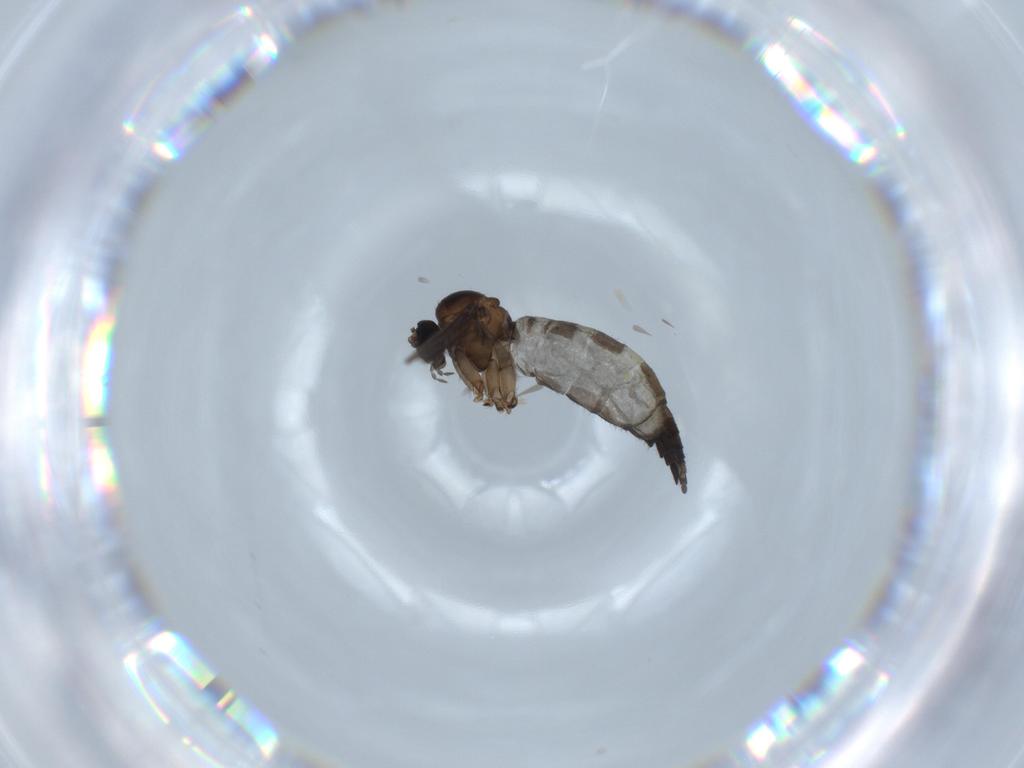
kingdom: Animalia
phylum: Arthropoda
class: Insecta
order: Diptera
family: Sciaridae
